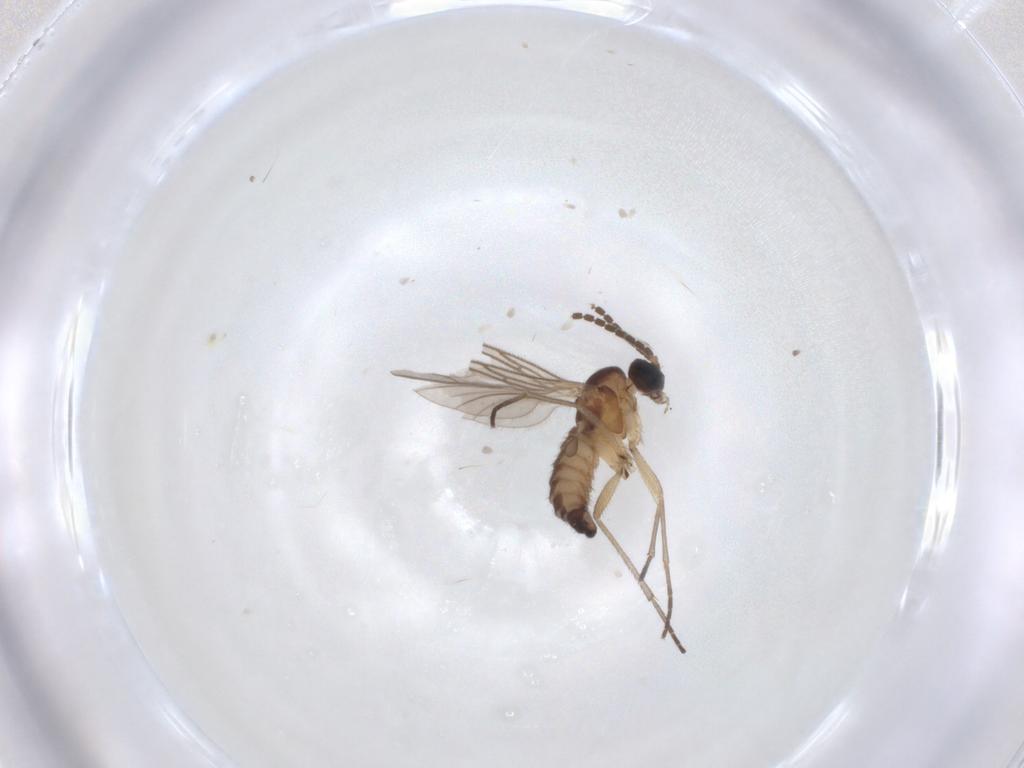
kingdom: Animalia
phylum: Arthropoda
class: Insecta
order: Diptera
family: Sciaridae
